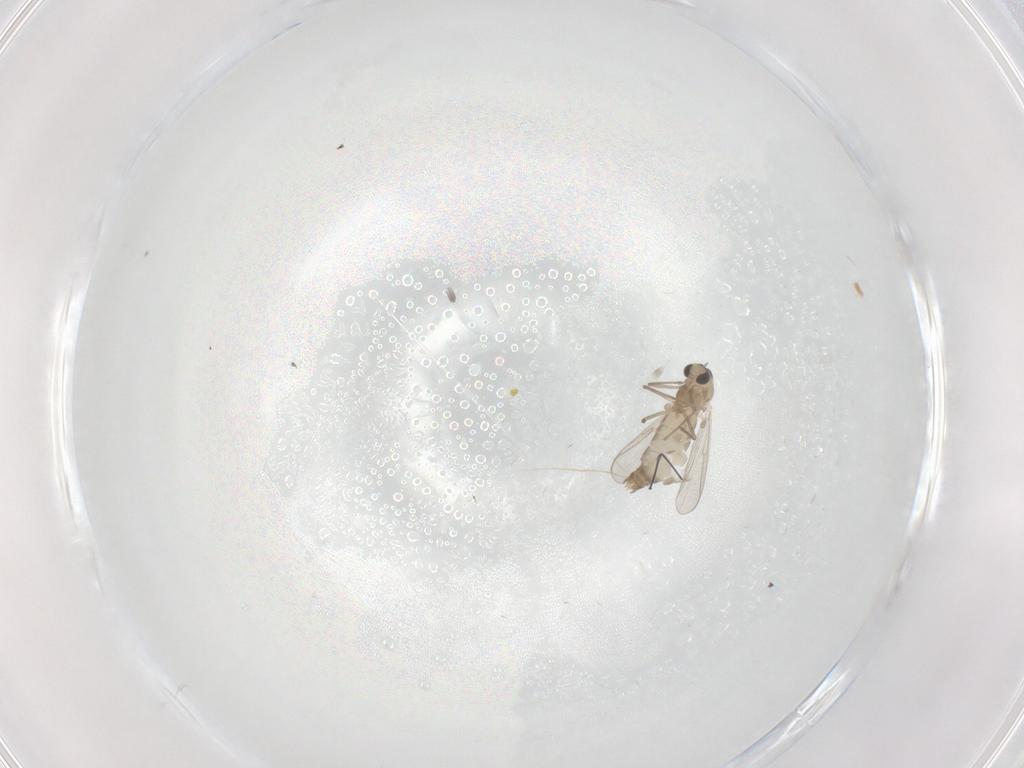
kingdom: Animalia
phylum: Arthropoda
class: Insecta
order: Diptera
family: Chironomidae
